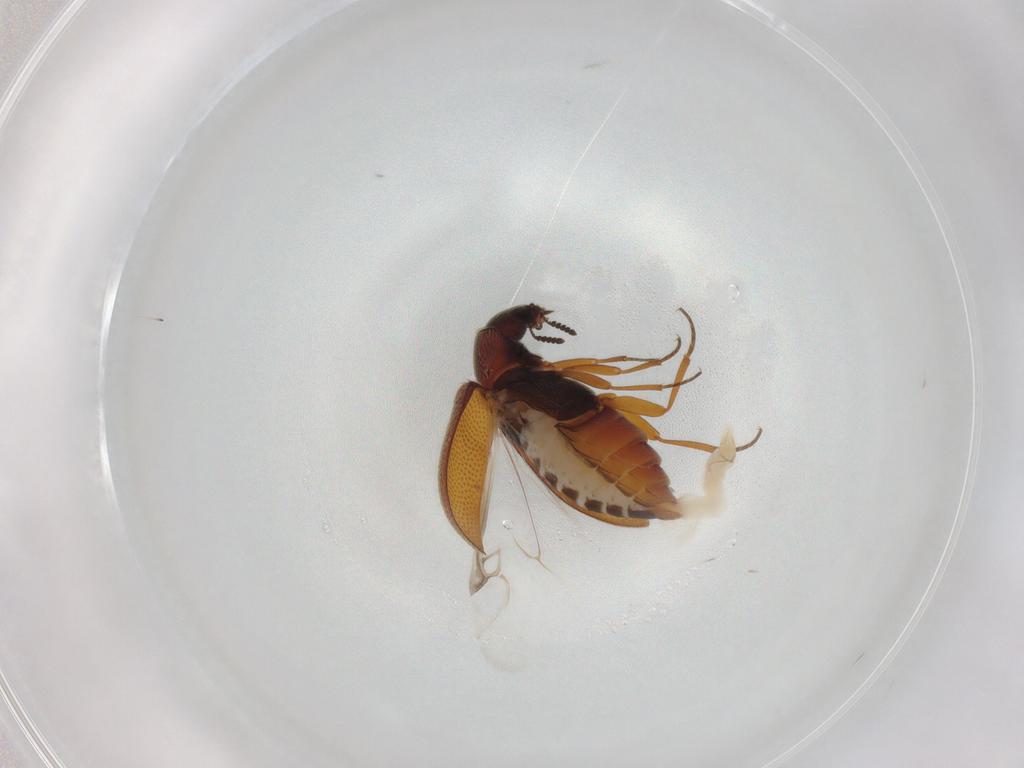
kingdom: Animalia
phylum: Arthropoda
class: Insecta
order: Coleoptera
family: Rhadalidae
